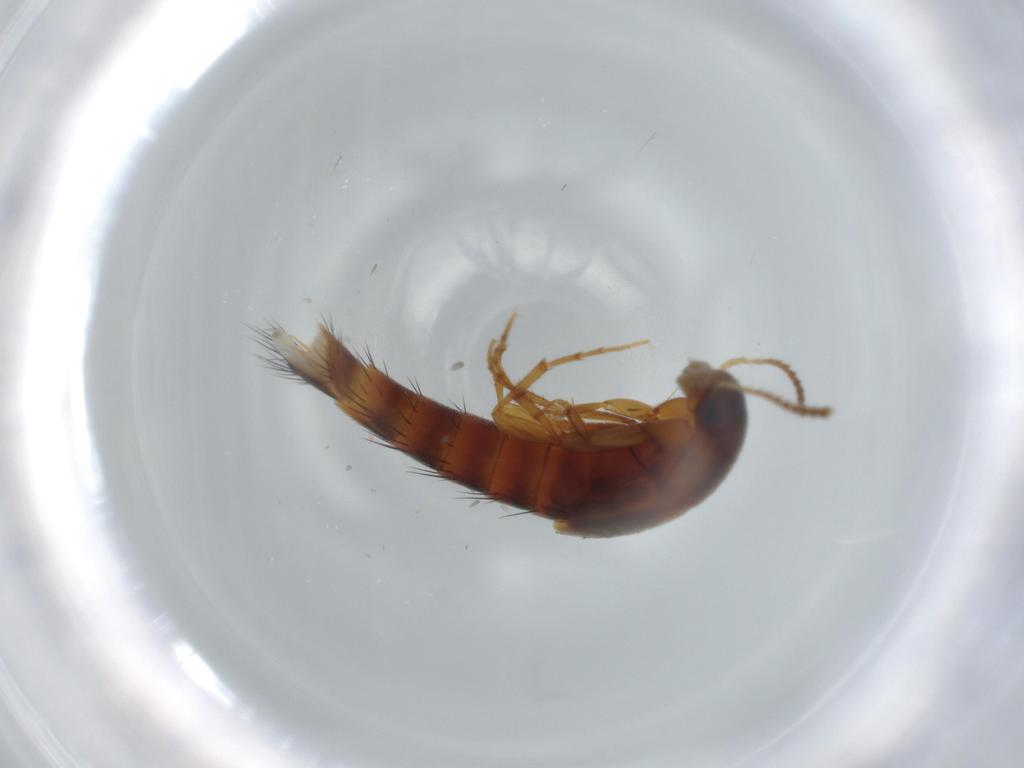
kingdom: Animalia
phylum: Arthropoda
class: Insecta
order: Coleoptera
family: Staphylinidae
